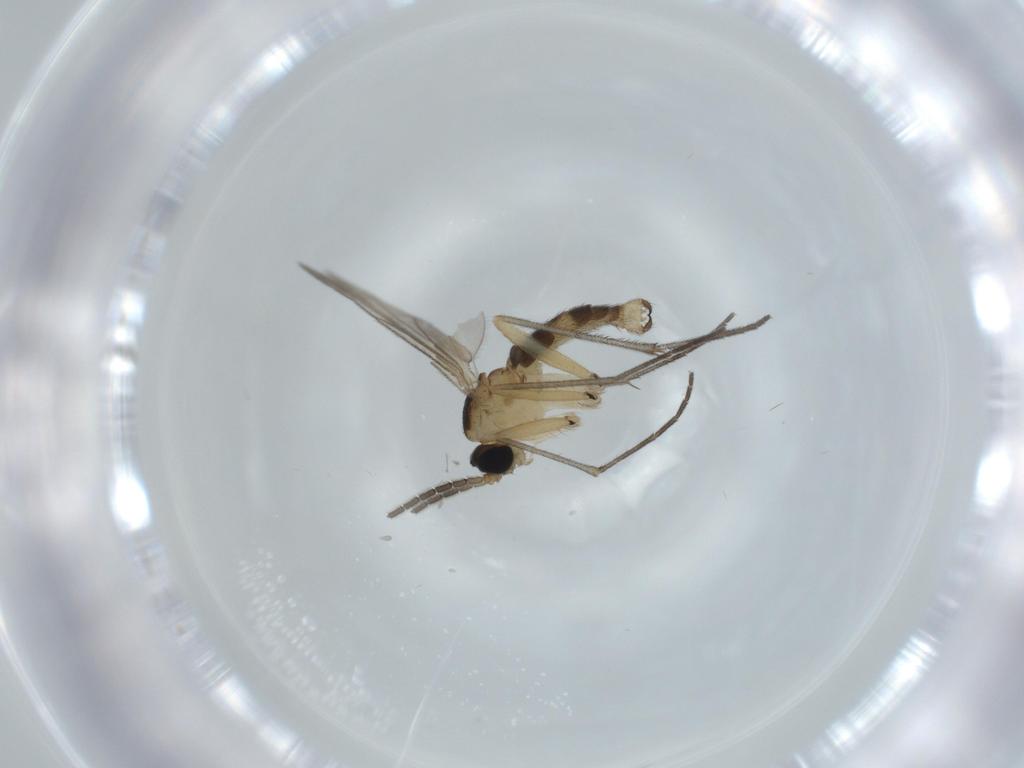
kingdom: Animalia
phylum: Arthropoda
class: Insecta
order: Diptera
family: Sciaridae
